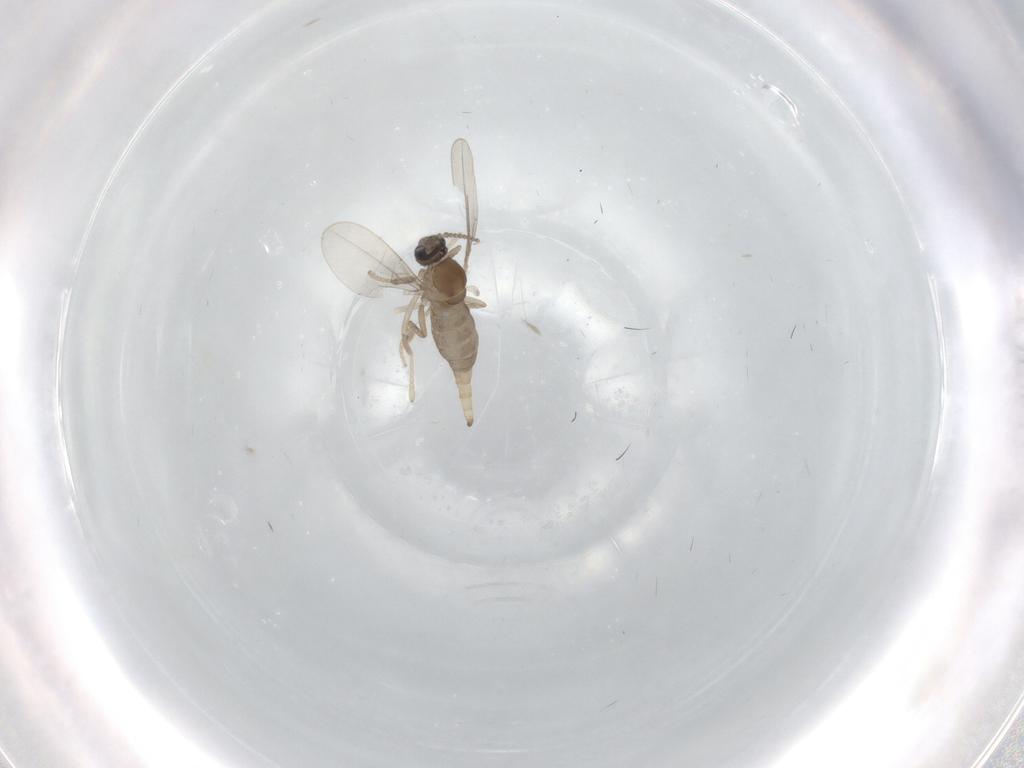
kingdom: Animalia
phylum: Arthropoda
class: Insecta
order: Diptera
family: Cecidomyiidae
